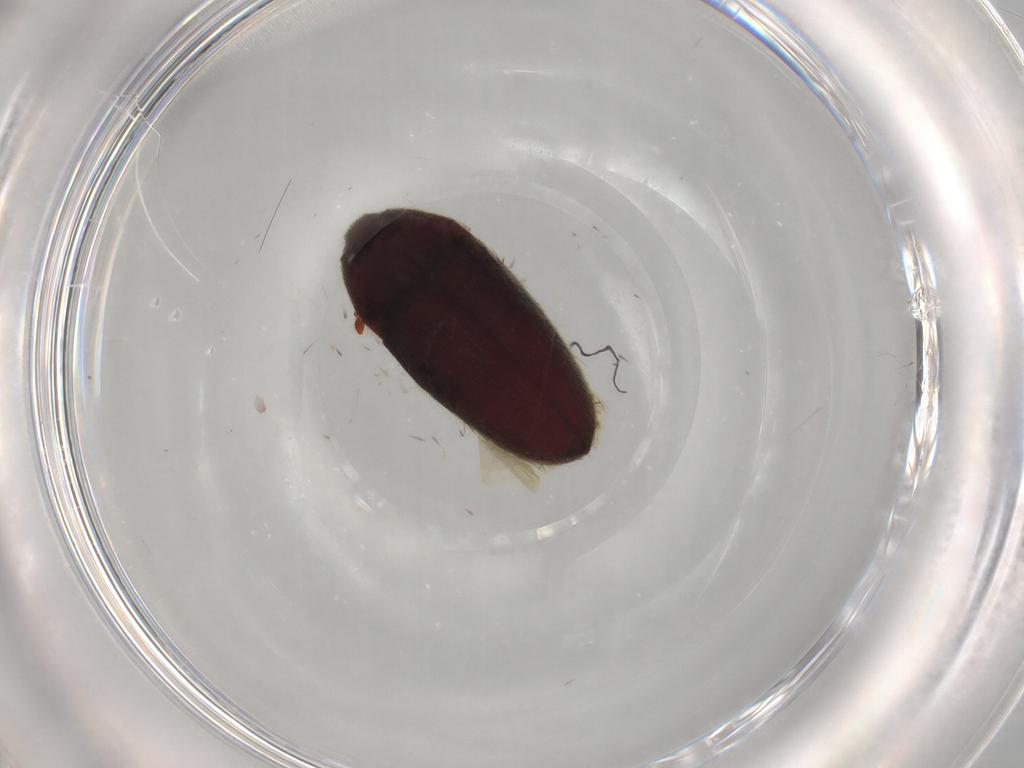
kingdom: Animalia
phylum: Arthropoda
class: Insecta
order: Coleoptera
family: Throscidae
